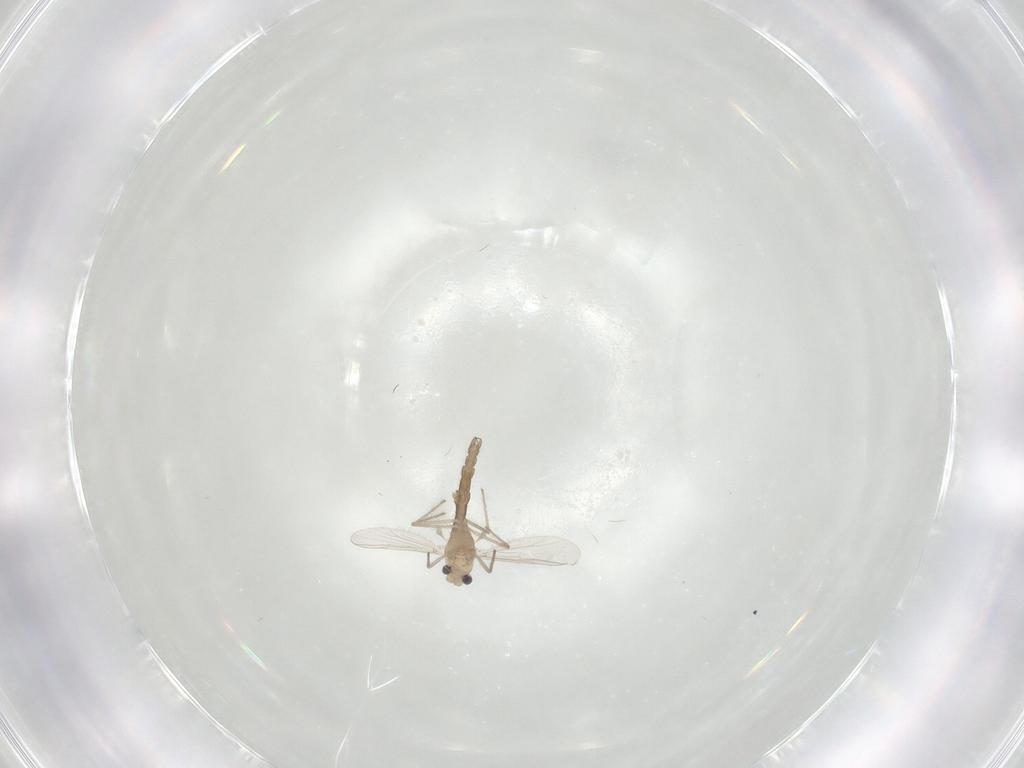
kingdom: Animalia
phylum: Arthropoda
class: Insecta
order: Diptera
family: Chironomidae
